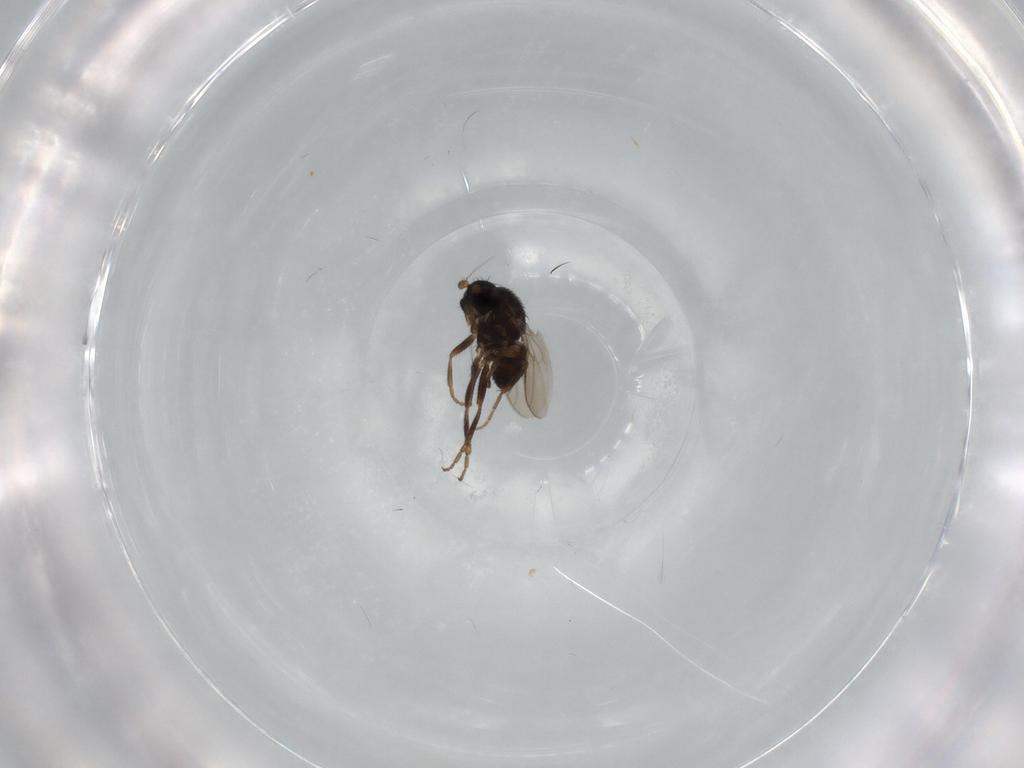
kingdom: Animalia
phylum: Arthropoda
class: Insecta
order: Diptera
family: Sphaeroceridae
